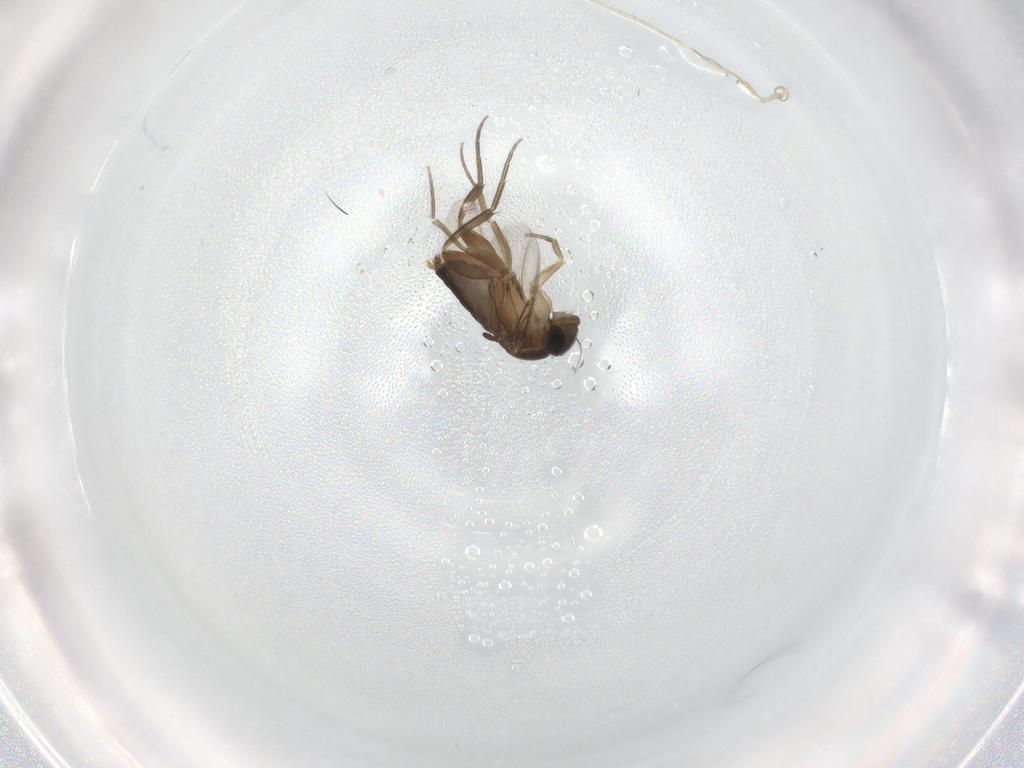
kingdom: Animalia
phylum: Arthropoda
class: Insecta
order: Diptera
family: Phoridae
